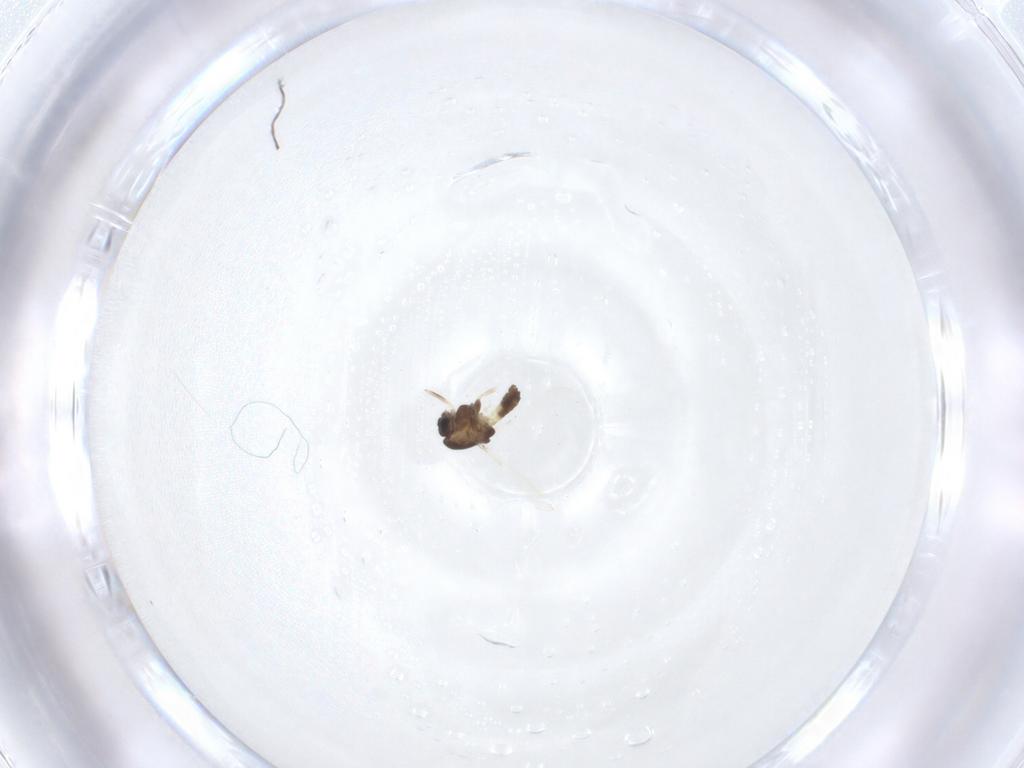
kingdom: Animalia
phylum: Arthropoda
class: Insecta
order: Diptera
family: Chironomidae
